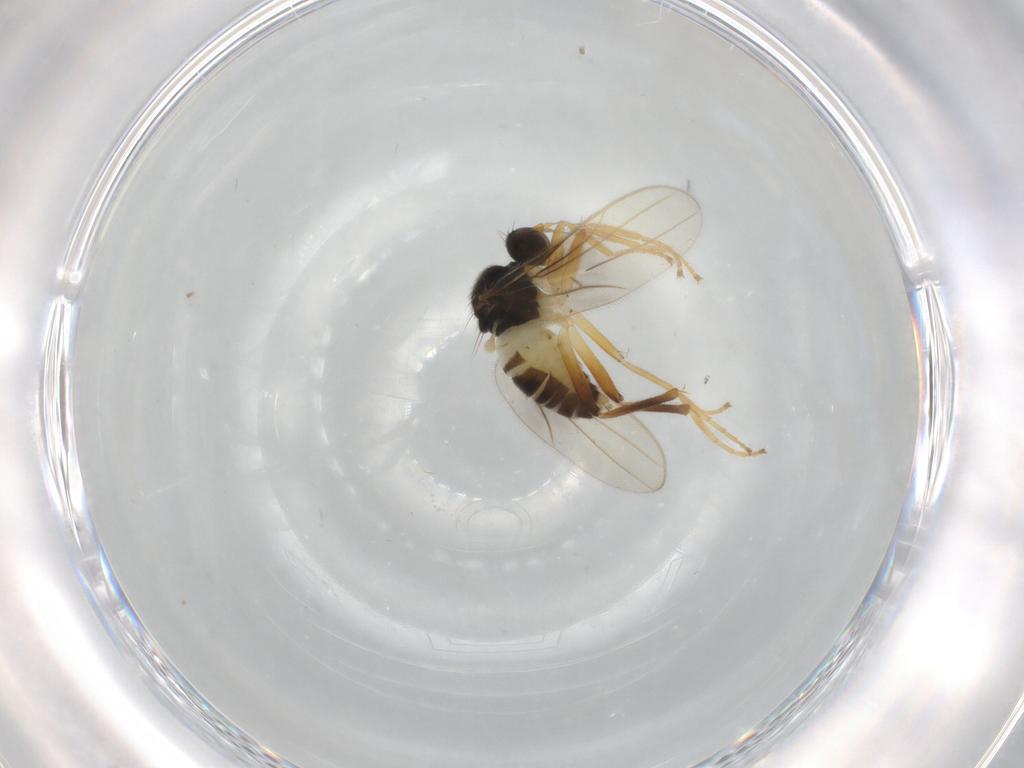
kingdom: Animalia
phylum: Arthropoda
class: Insecta
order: Diptera
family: Hybotidae
